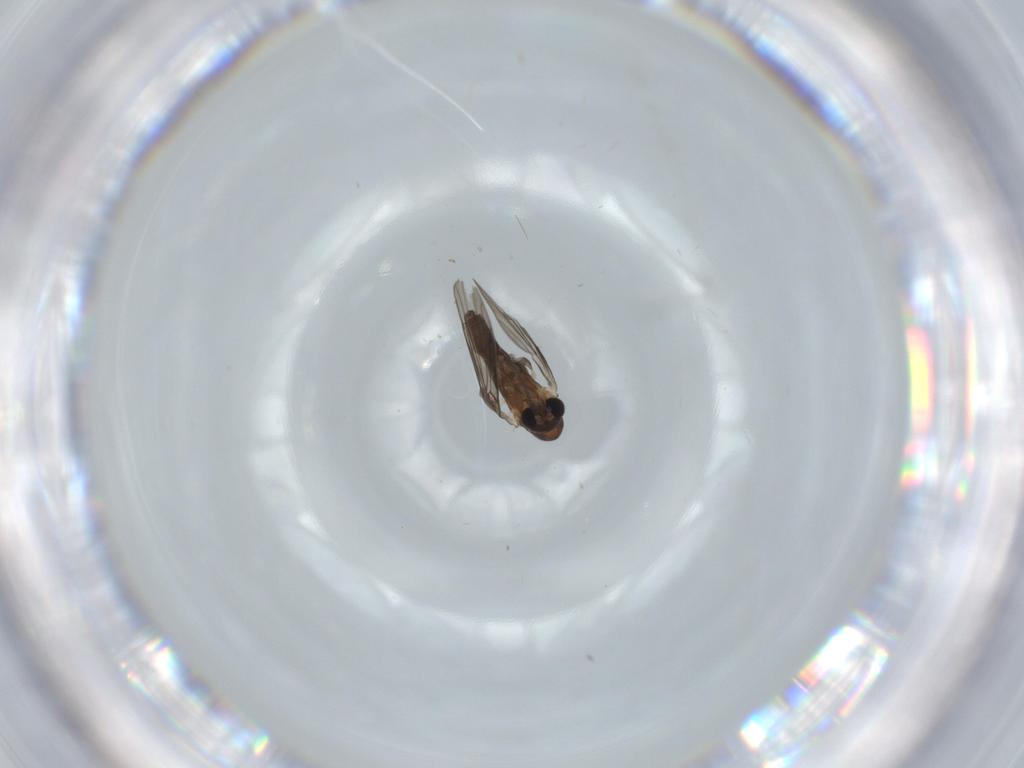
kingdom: Animalia
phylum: Arthropoda
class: Insecta
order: Diptera
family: Psychodidae
